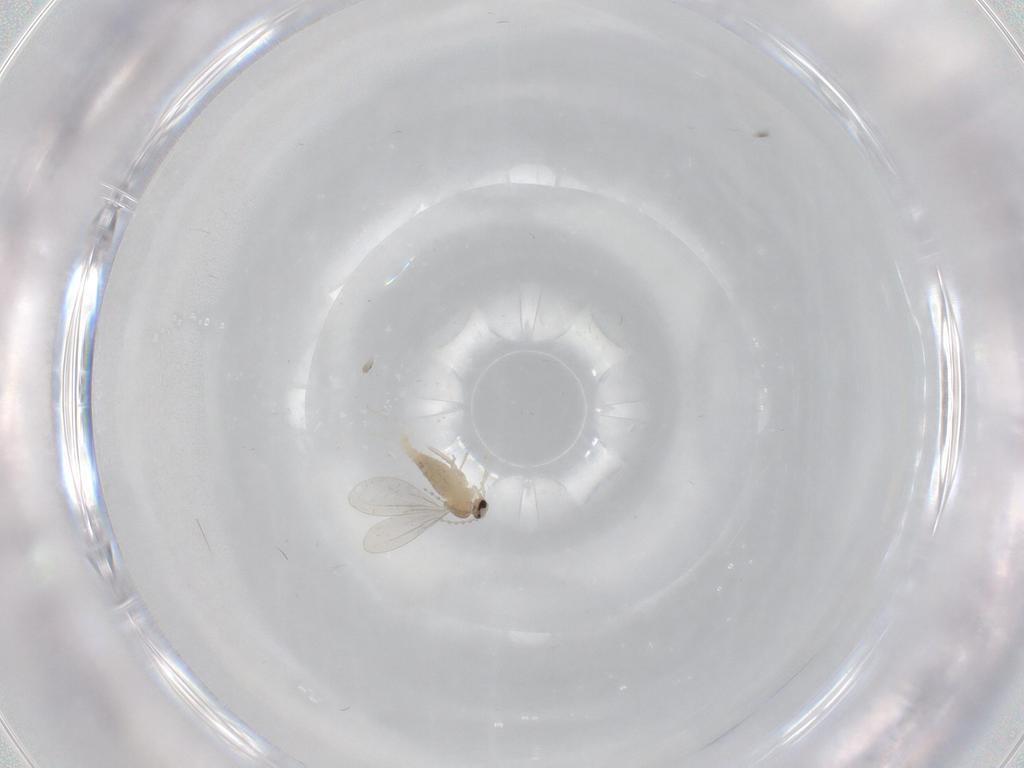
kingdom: Animalia
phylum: Arthropoda
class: Insecta
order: Diptera
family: Cecidomyiidae
